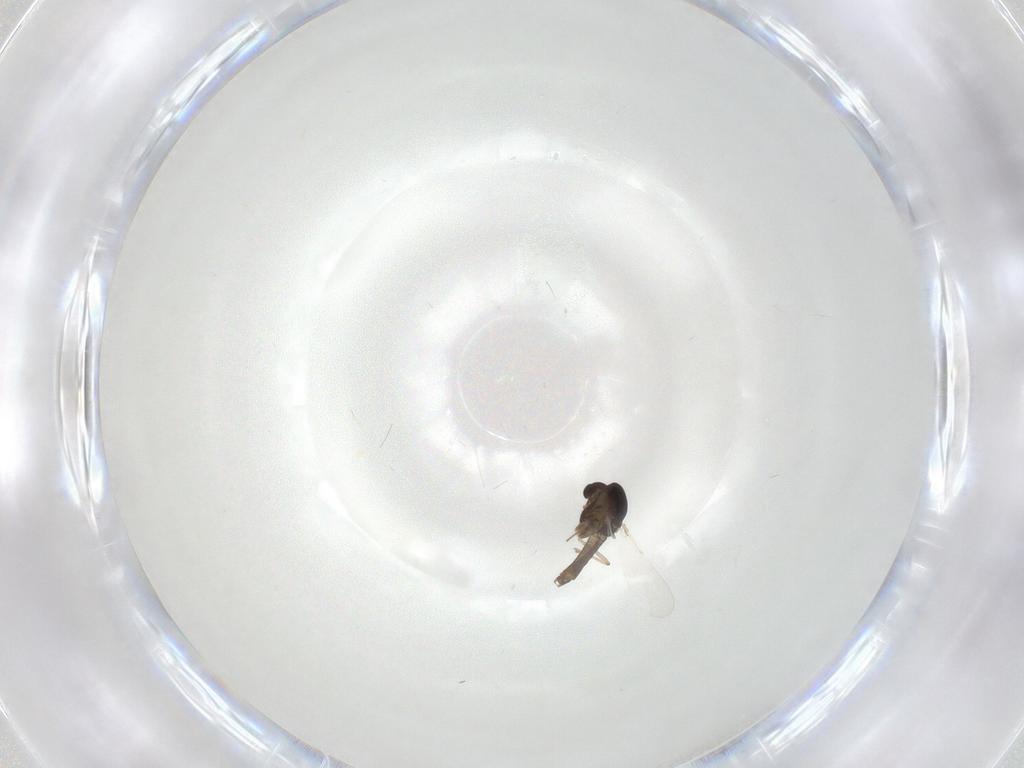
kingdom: Animalia
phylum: Arthropoda
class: Insecta
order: Diptera
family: Chironomidae
